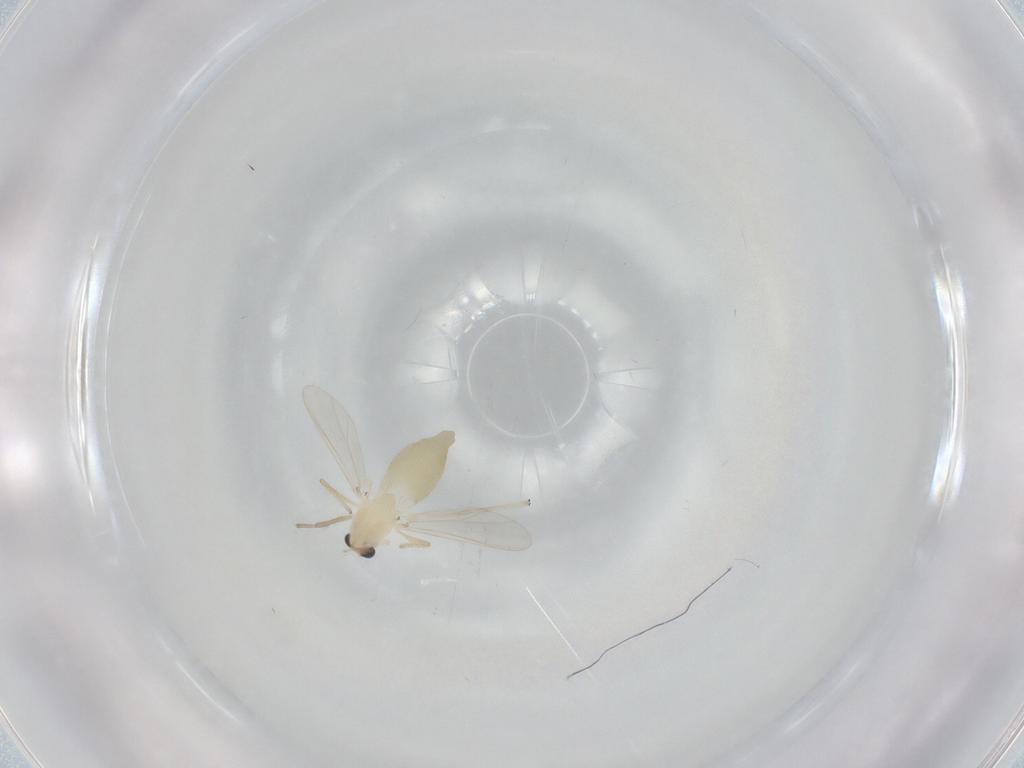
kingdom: Animalia
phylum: Arthropoda
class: Insecta
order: Diptera
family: Chironomidae
